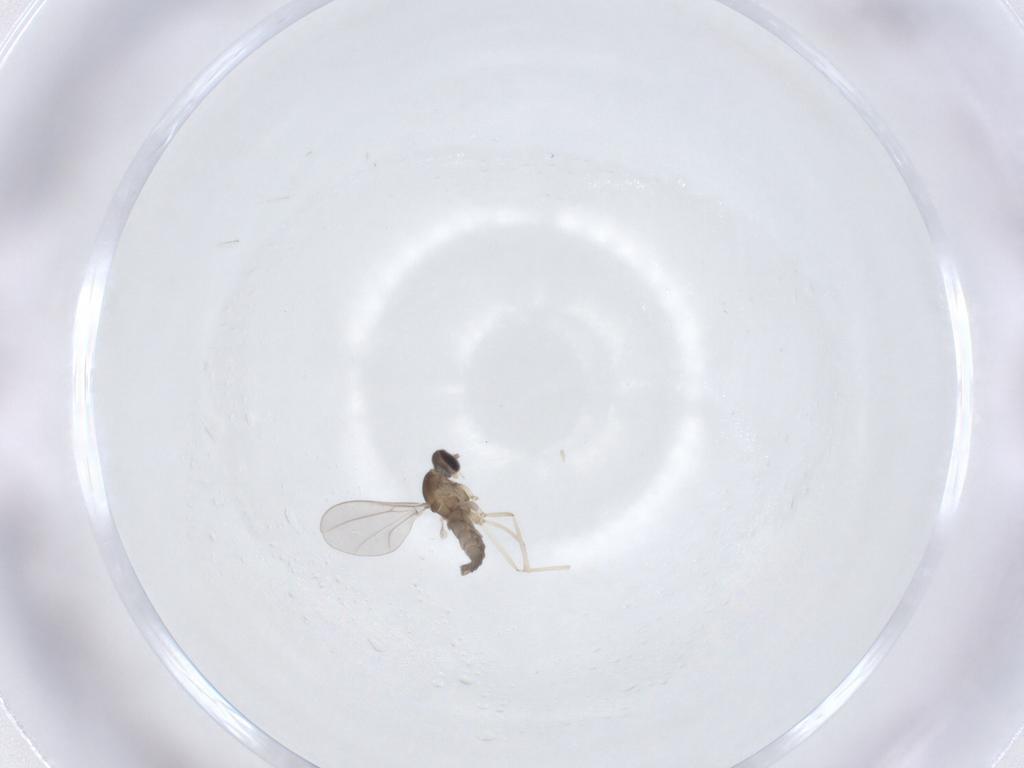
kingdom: Animalia
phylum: Arthropoda
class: Insecta
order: Diptera
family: Cecidomyiidae
